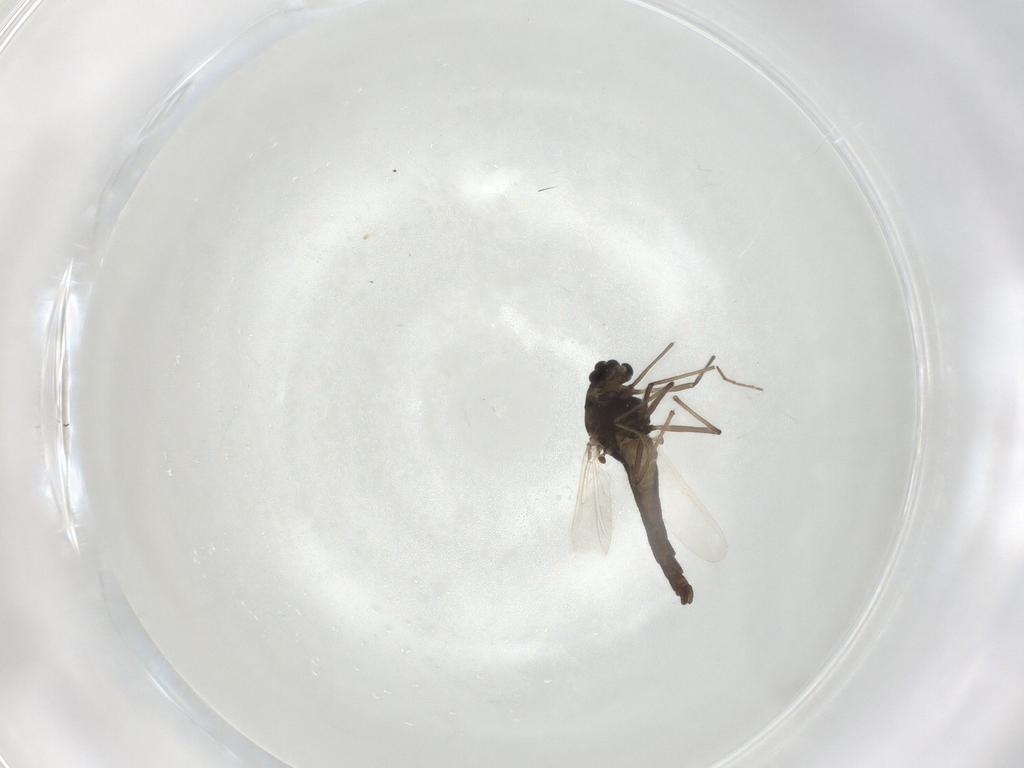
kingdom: Animalia
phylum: Arthropoda
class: Insecta
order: Diptera
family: Chironomidae
